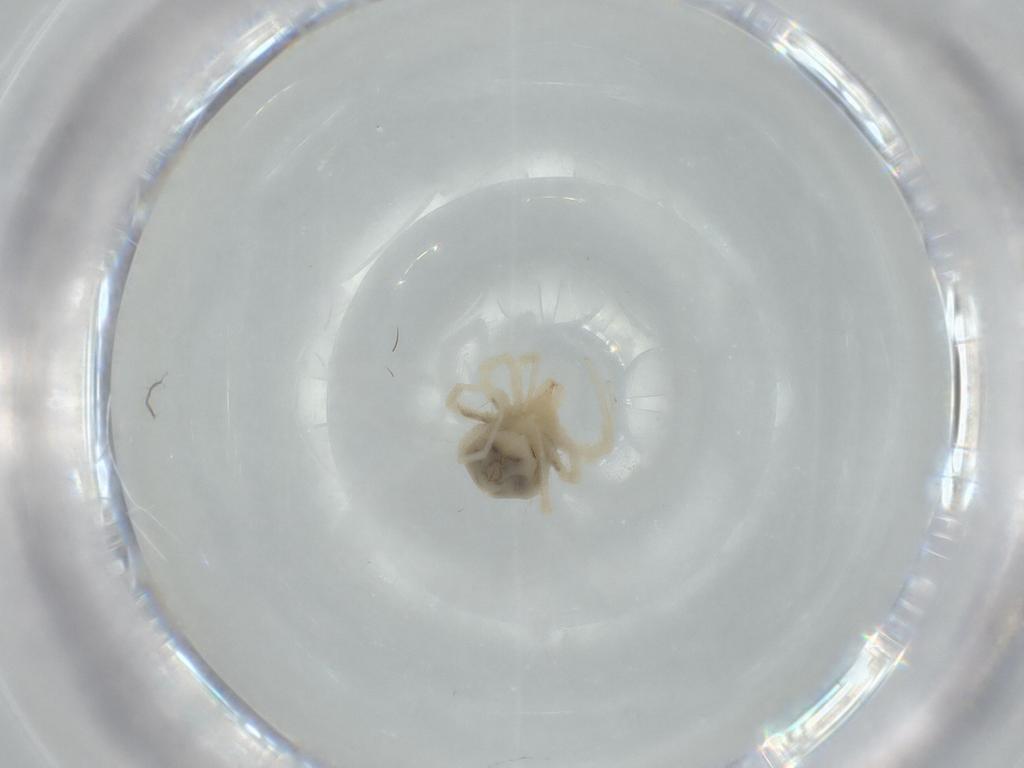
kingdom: Animalia
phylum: Arthropoda
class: Arachnida
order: Trombidiformes
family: Anystidae
